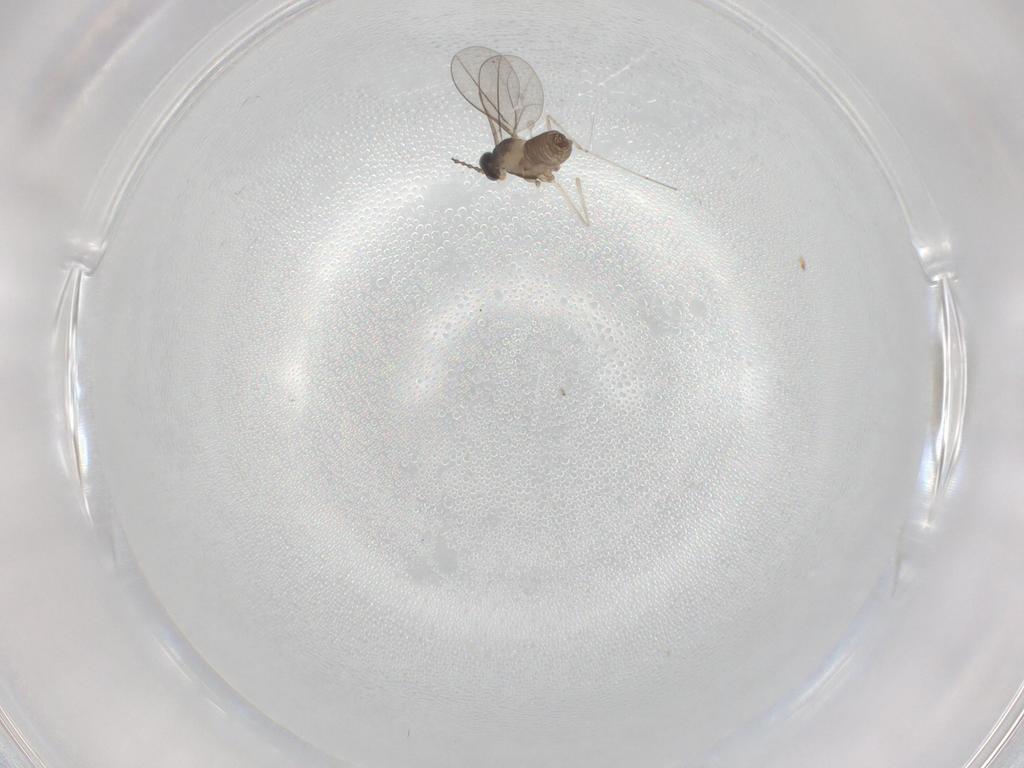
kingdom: Animalia
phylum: Arthropoda
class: Insecta
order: Diptera
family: Cecidomyiidae
